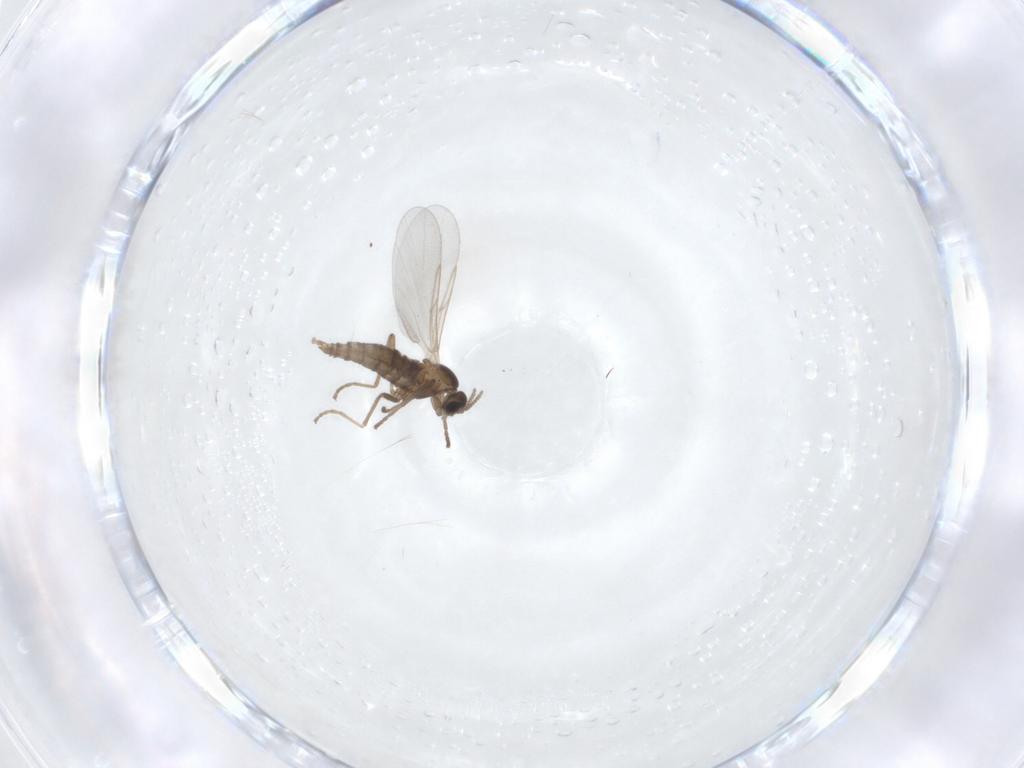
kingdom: Animalia
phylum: Arthropoda
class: Insecta
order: Diptera
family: Cecidomyiidae
